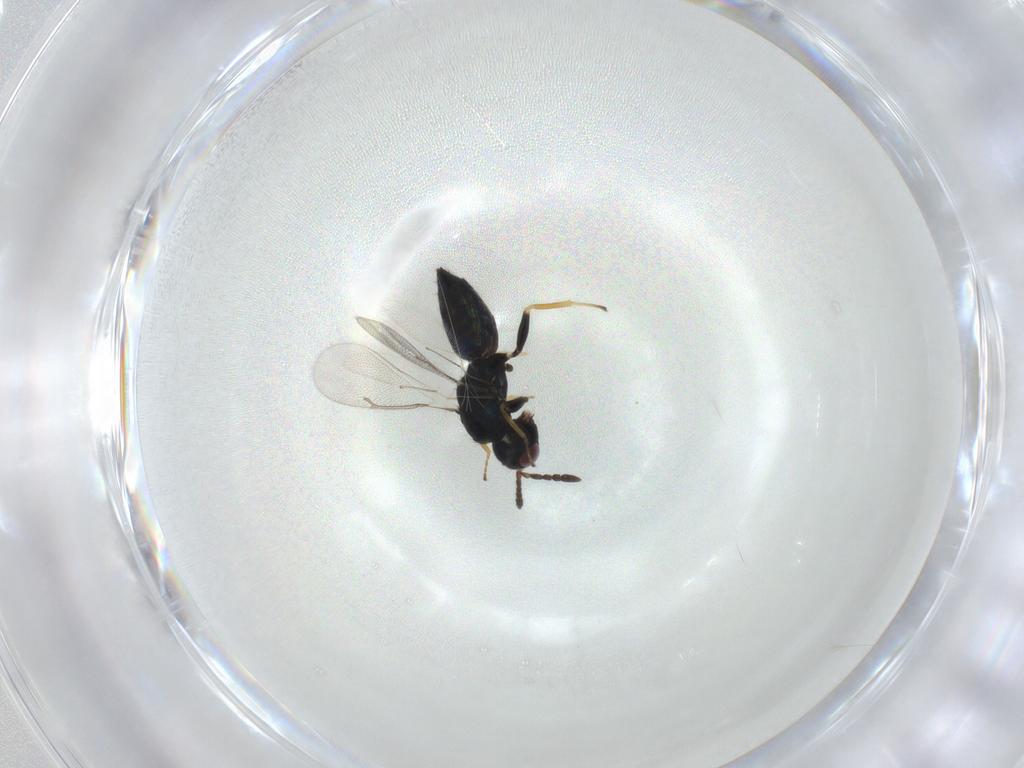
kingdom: Animalia
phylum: Arthropoda
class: Insecta
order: Hymenoptera
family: Eulophidae
